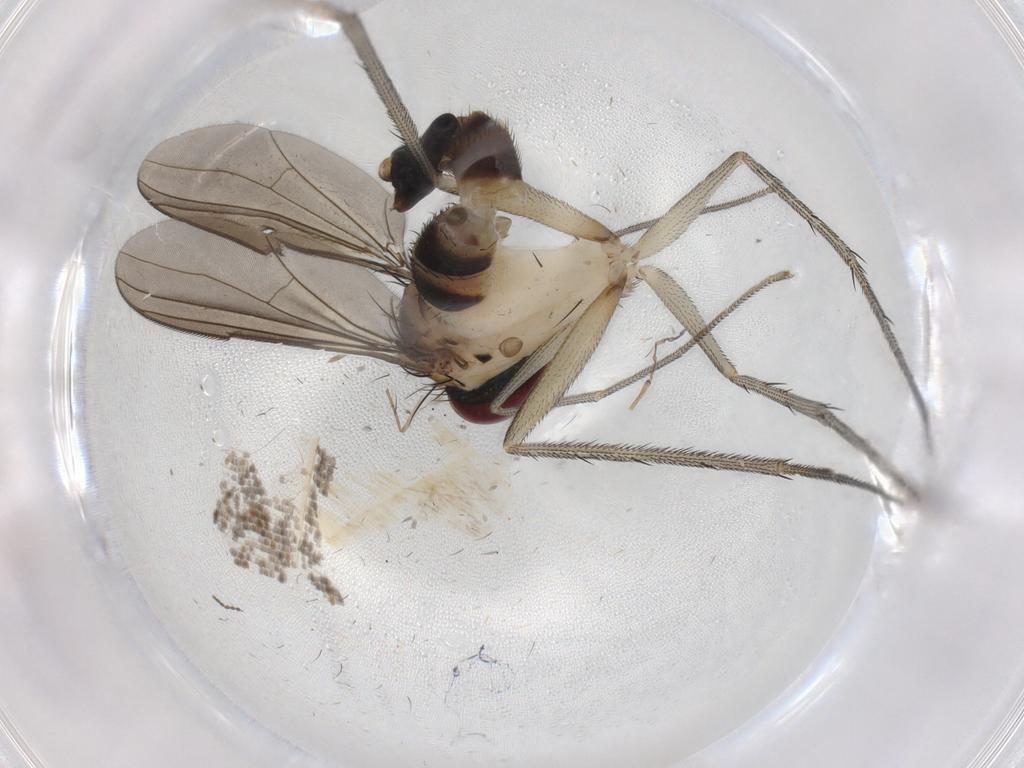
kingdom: Animalia
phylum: Arthropoda
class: Insecta
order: Diptera
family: Dolichopodidae
